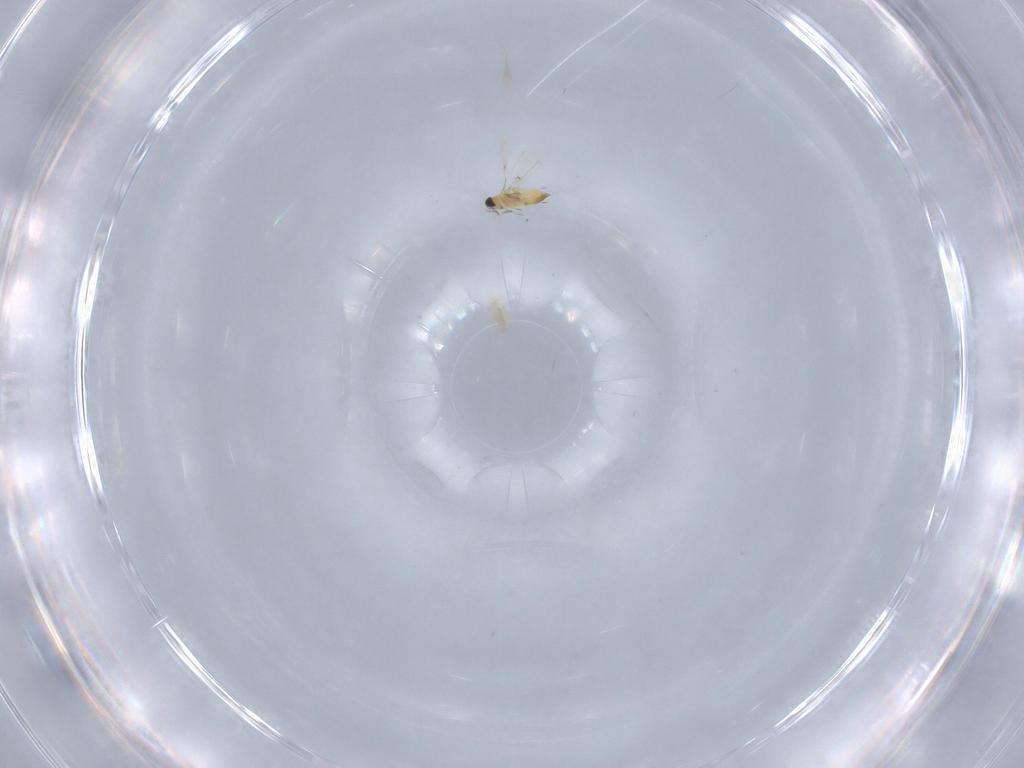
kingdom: Animalia
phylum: Arthropoda
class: Insecta
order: Hymenoptera
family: Trichogrammatidae
